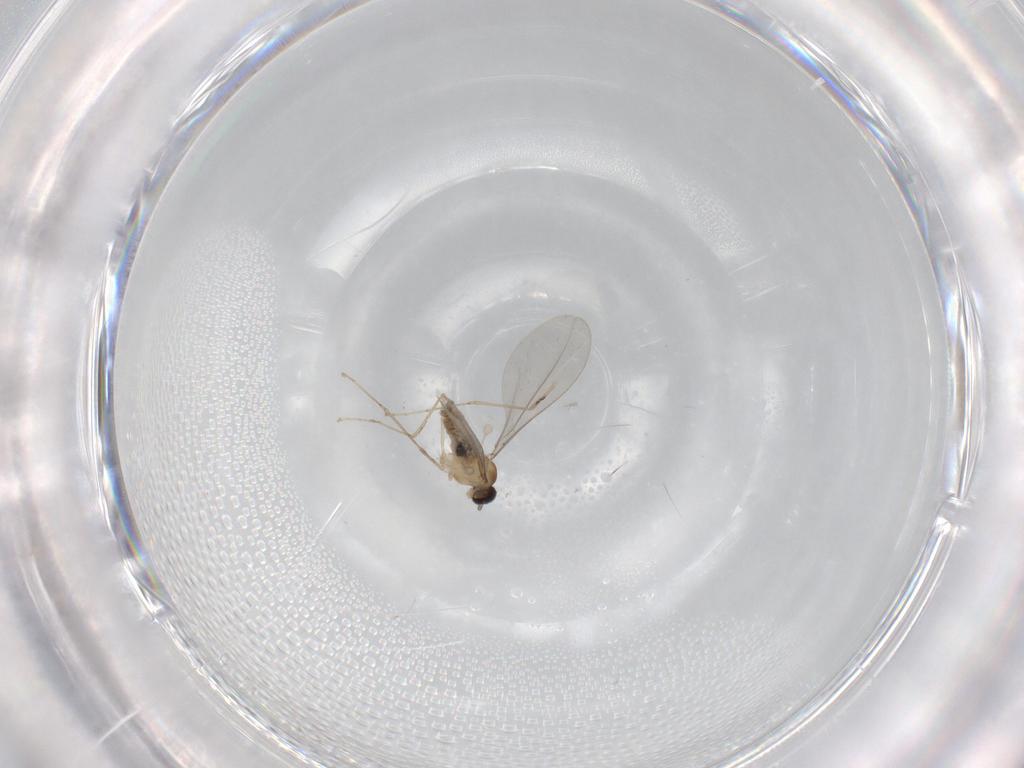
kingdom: Animalia
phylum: Arthropoda
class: Insecta
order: Diptera
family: Cecidomyiidae
